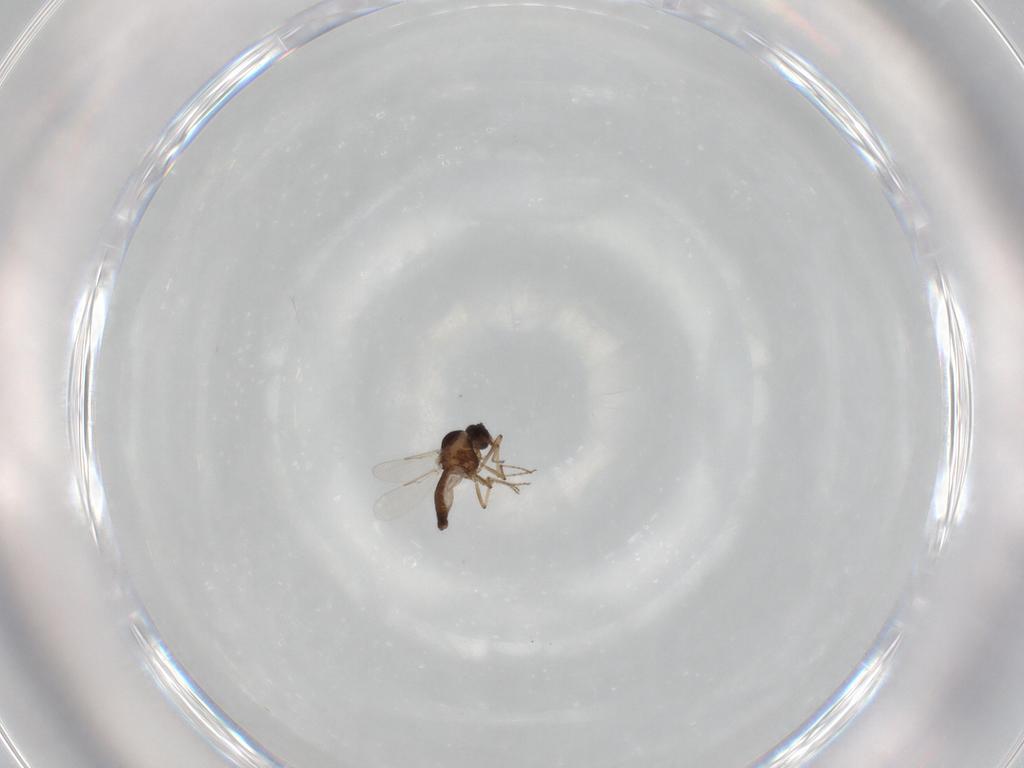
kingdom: Animalia
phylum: Arthropoda
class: Insecta
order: Diptera
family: Ceratopogonidae
